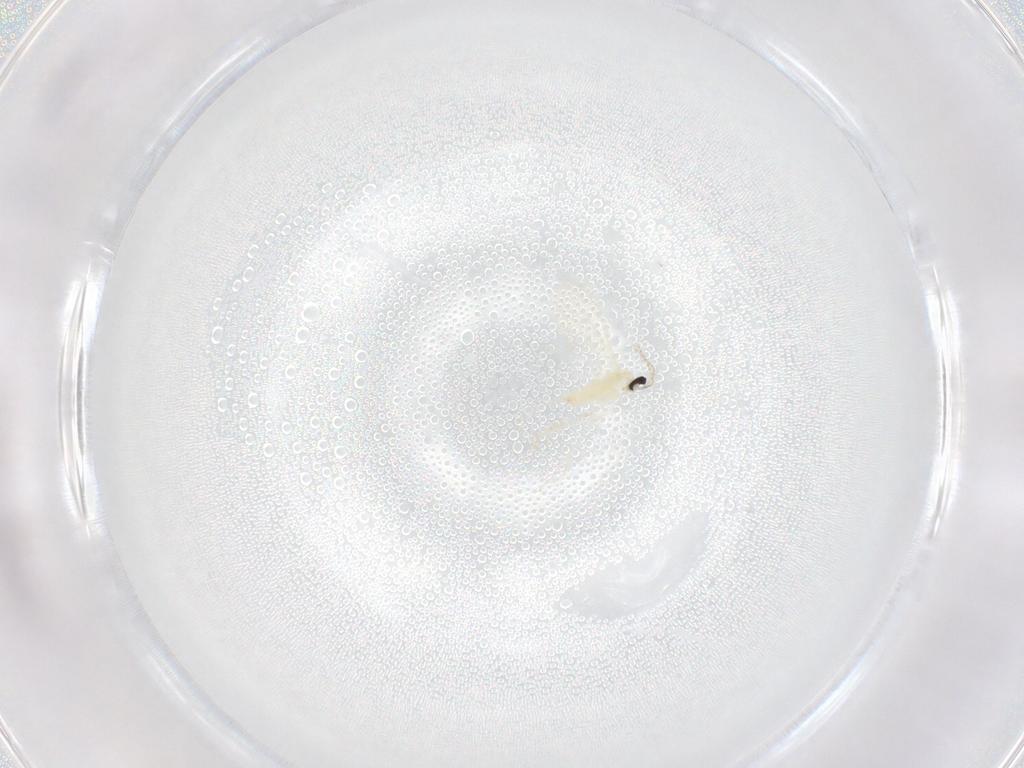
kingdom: Animalia
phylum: Arthropoda
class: Insecta
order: Diptera
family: Cecidomyiidae
